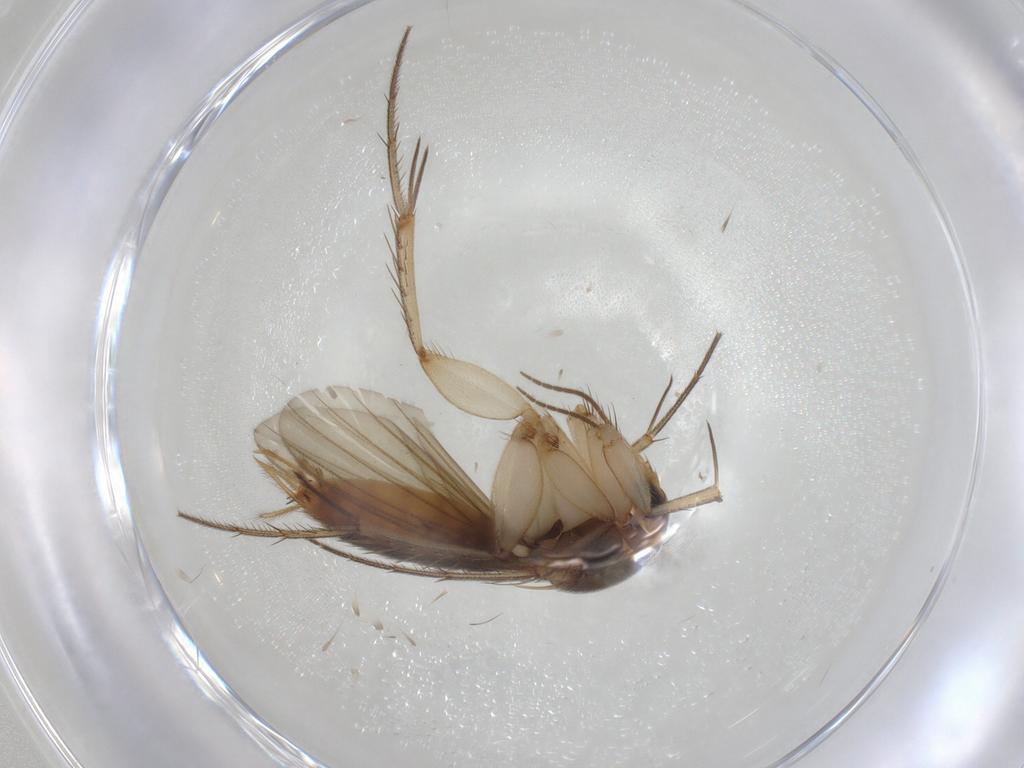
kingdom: Animalia
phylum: Arthropoda
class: Insecta
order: Diptera
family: Mycetophilidae
